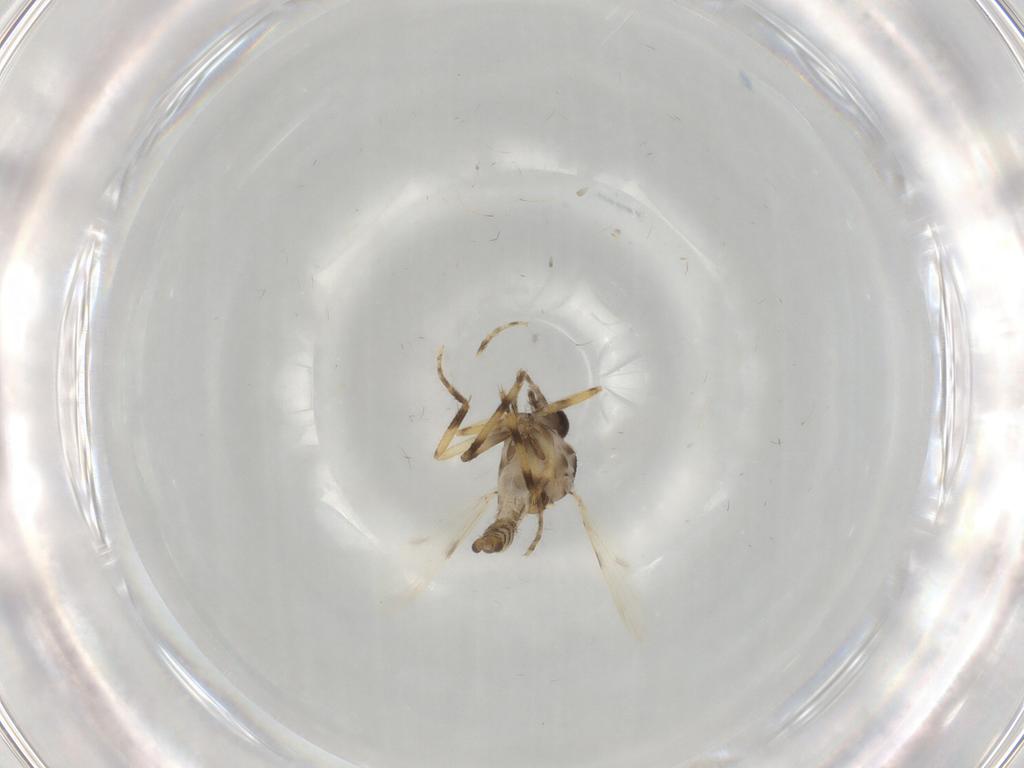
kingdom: Animalia
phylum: Arthropoda
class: Insecta
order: Diptera
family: Ceratopogonidae
